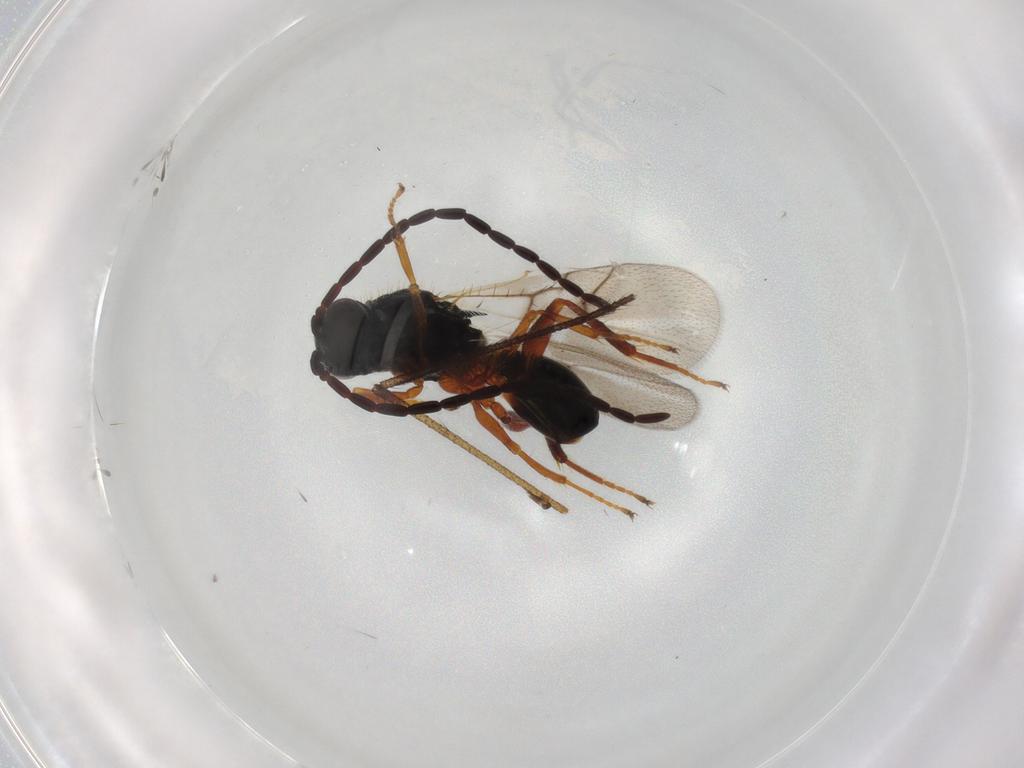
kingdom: Animalia
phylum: Arthropoda
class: Insecta
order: Hymenoptera
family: Figitidae
